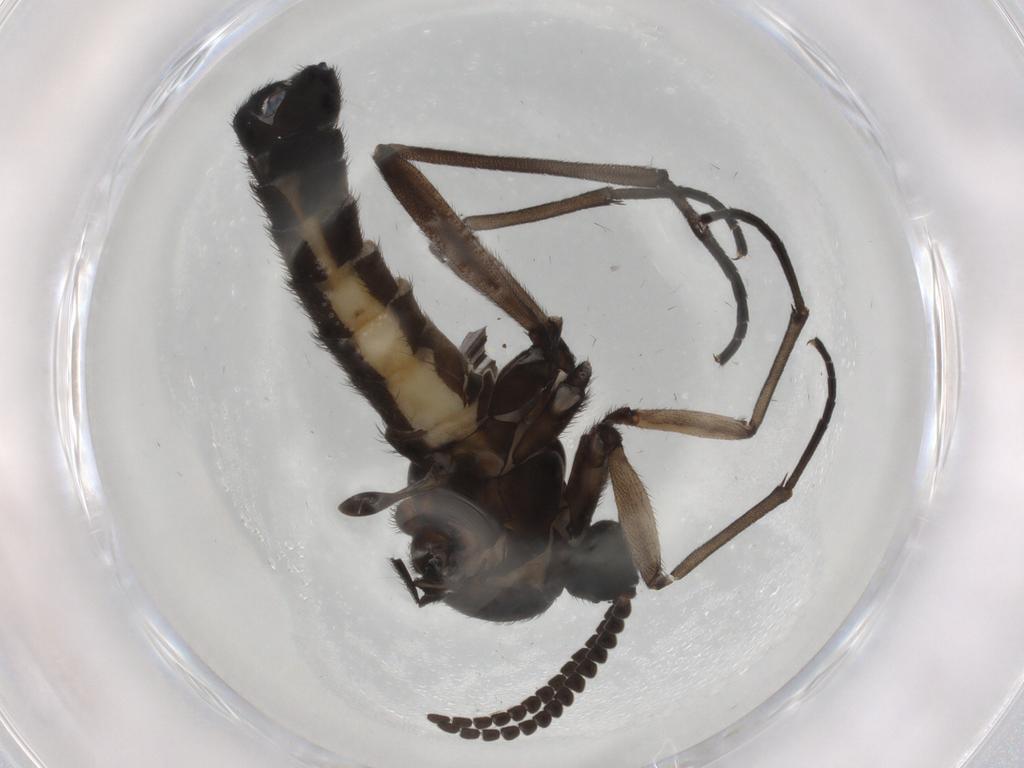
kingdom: Animalia
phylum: Arthropoda
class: Insecta
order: Diptera
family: Sciaridae
